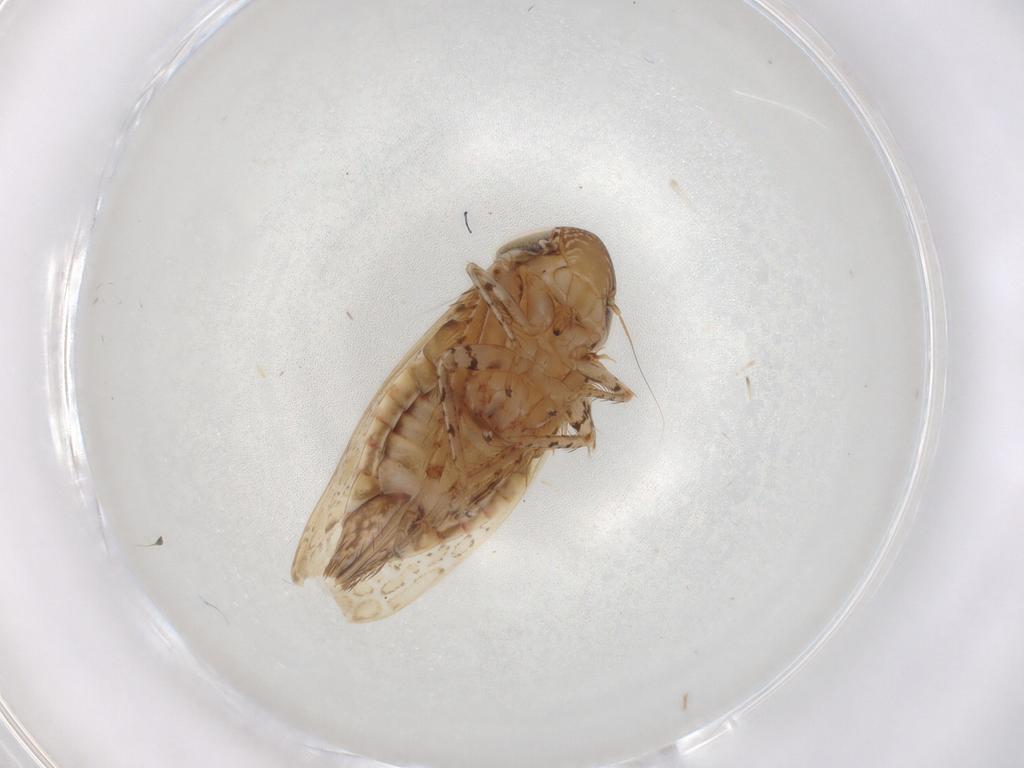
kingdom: Animalia
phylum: Arthropoda
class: Insecta
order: Hemiptera
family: Cicadellidae
